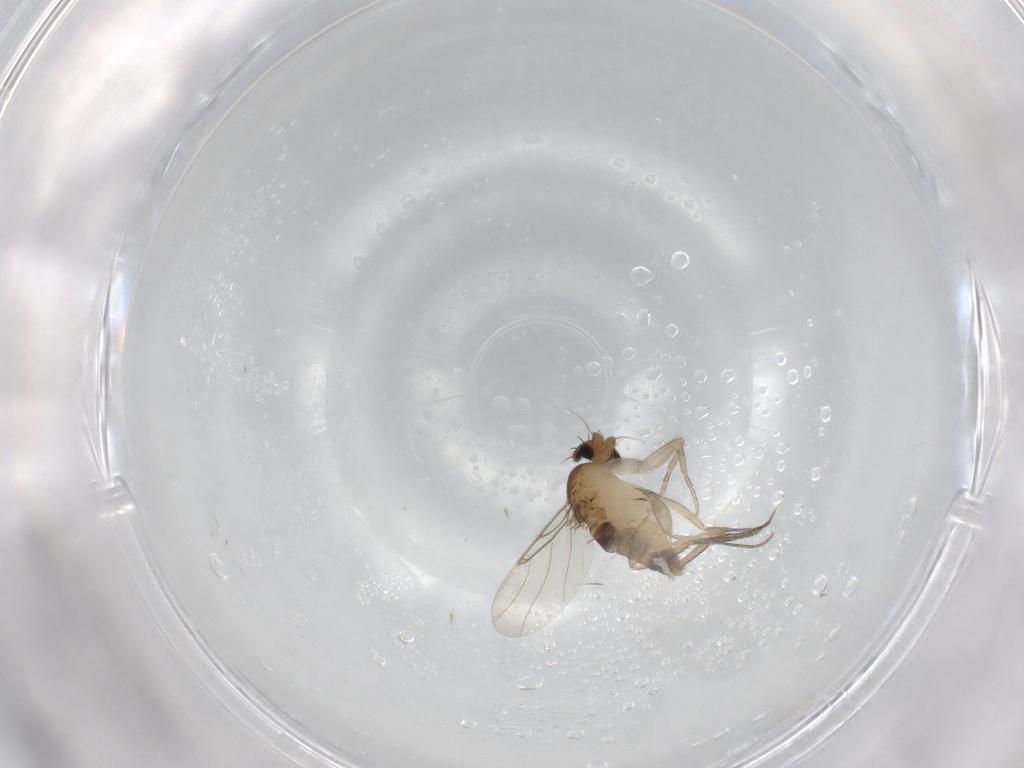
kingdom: Animalia
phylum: Arthropoda
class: Insecta
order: Diptera
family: Phoridae
